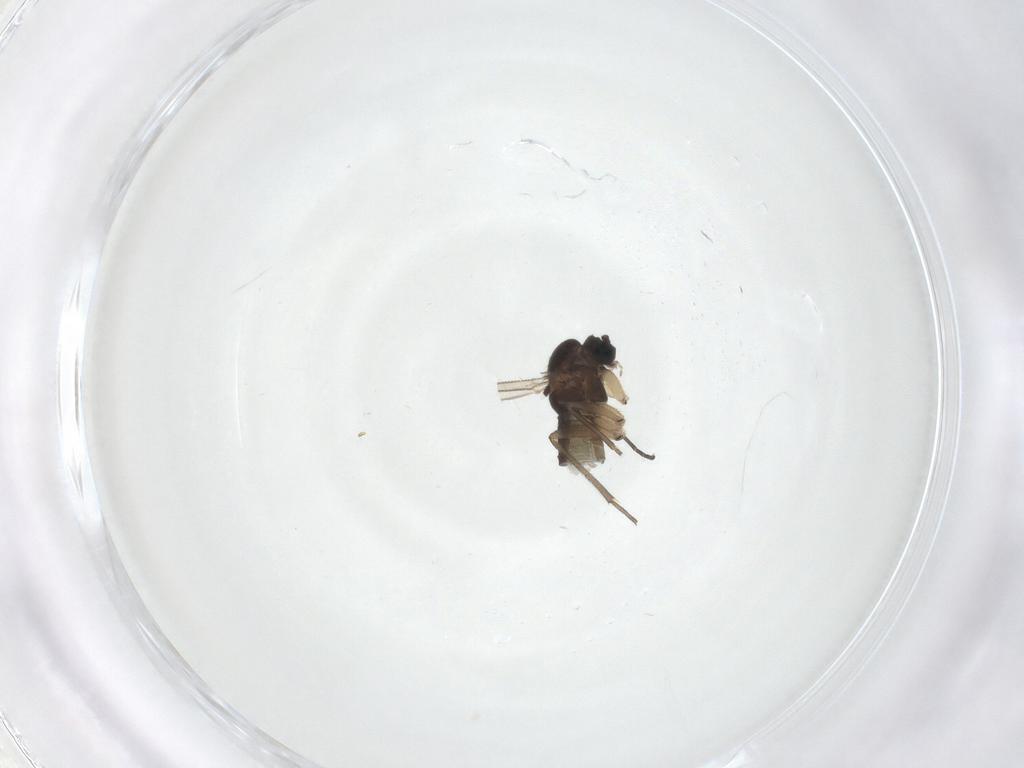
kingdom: Animalia
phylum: Arthropoda
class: Insecta
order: Diptera
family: Sciaridae
